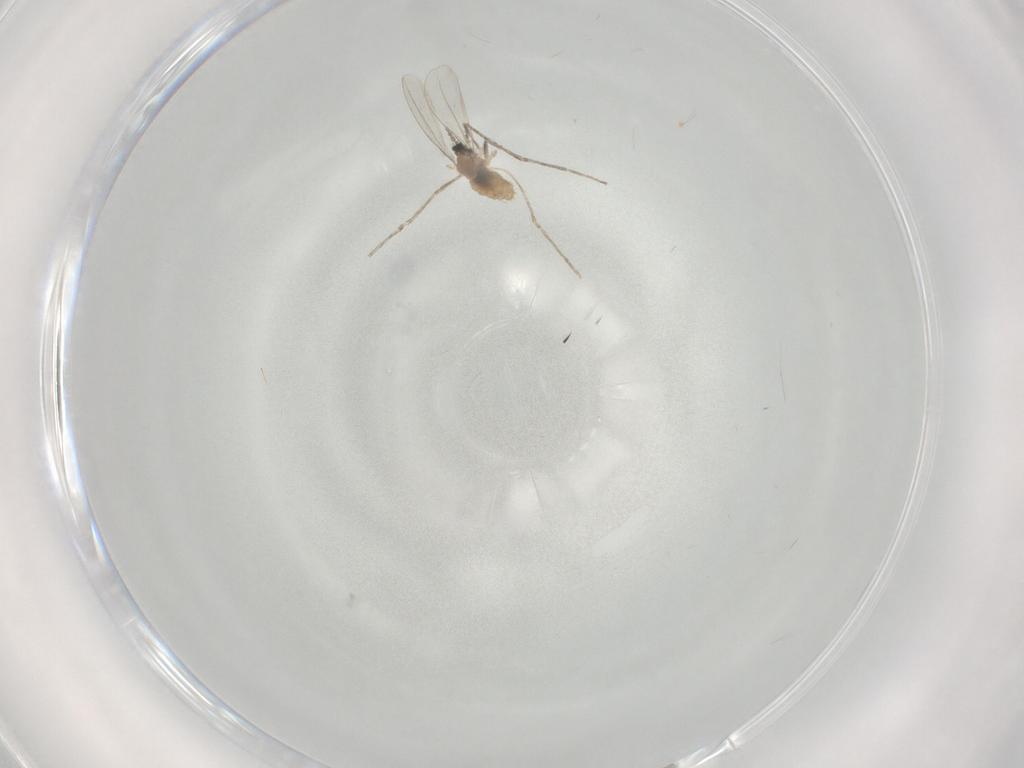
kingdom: Animalia
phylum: Arthropoda
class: Insecta
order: Diptera
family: Cecidomyiidae
